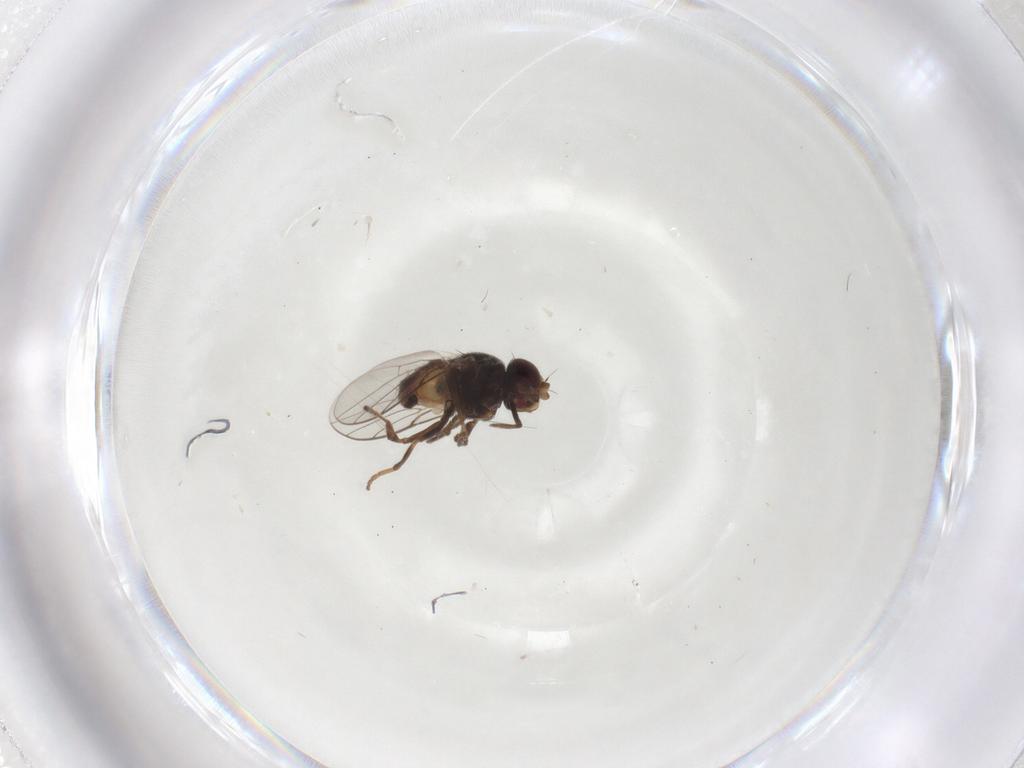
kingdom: Animalia
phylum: Arthropoda
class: Insecta
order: Diptera
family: Chloropidae
